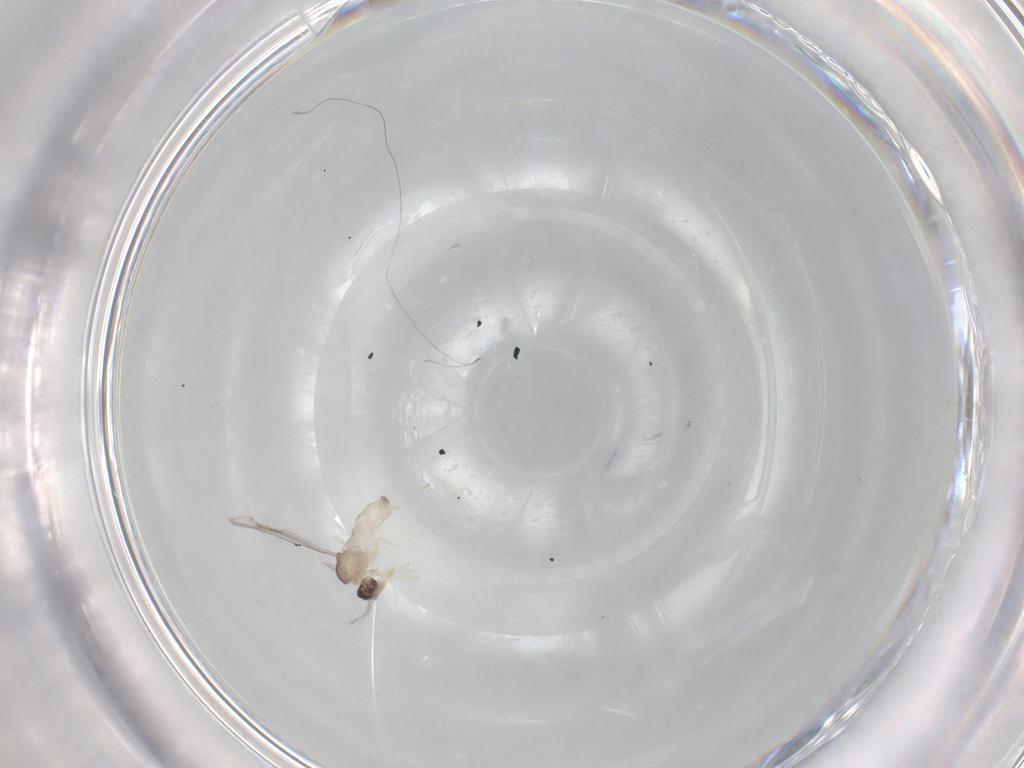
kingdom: Animalia
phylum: Arthropoda
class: Insecta
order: Diptera
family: Cecidomyiidae
